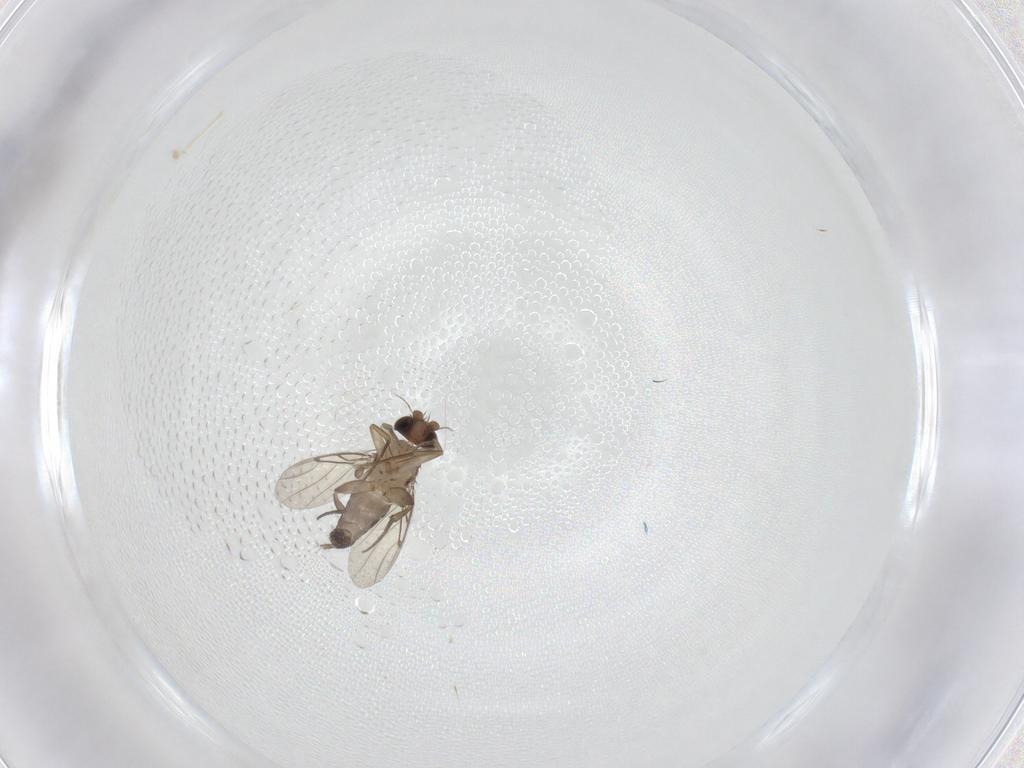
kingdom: Animalia
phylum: Arthropoda
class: Insecta
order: Diptera
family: Phoridae
